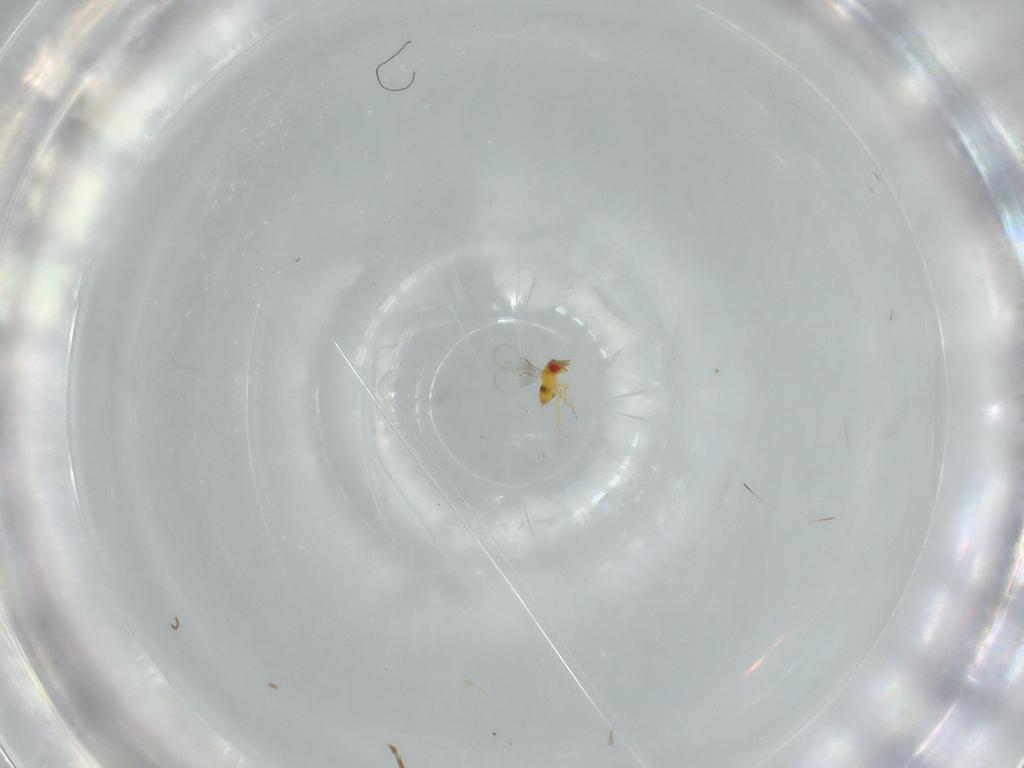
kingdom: Animalia
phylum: Arthropoda
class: Insecta
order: Hymenoptera
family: Trichogrammatidae
